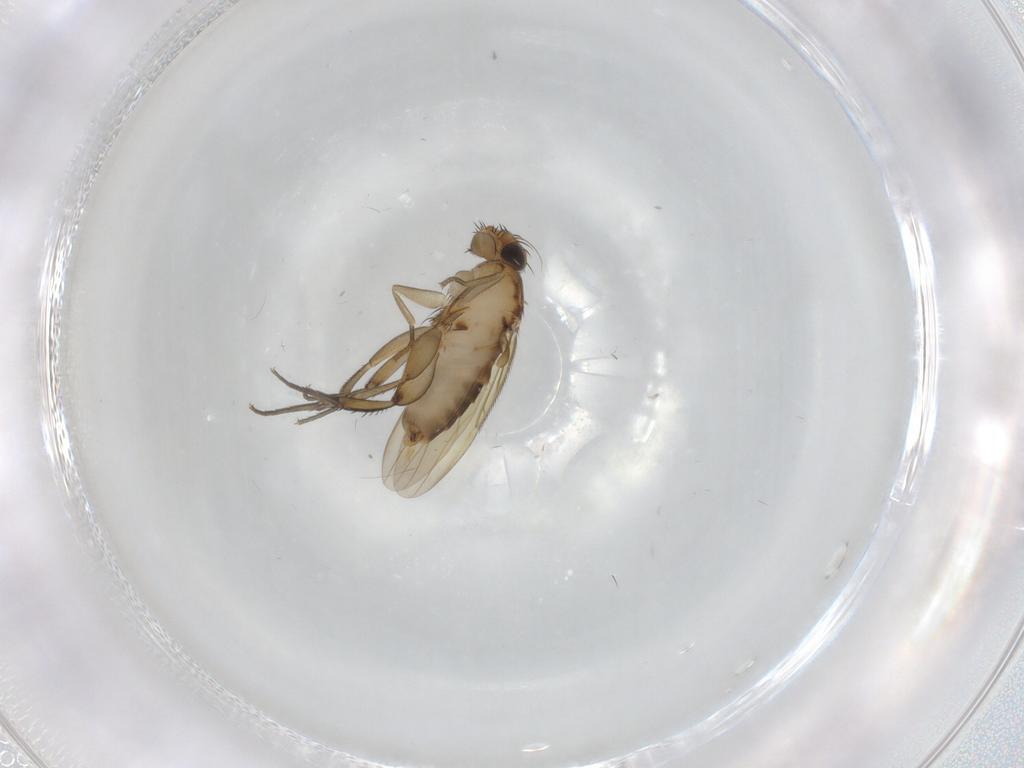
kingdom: Animalia
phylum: Arthropoda
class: Insecta
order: Diptera
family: Phoridae
